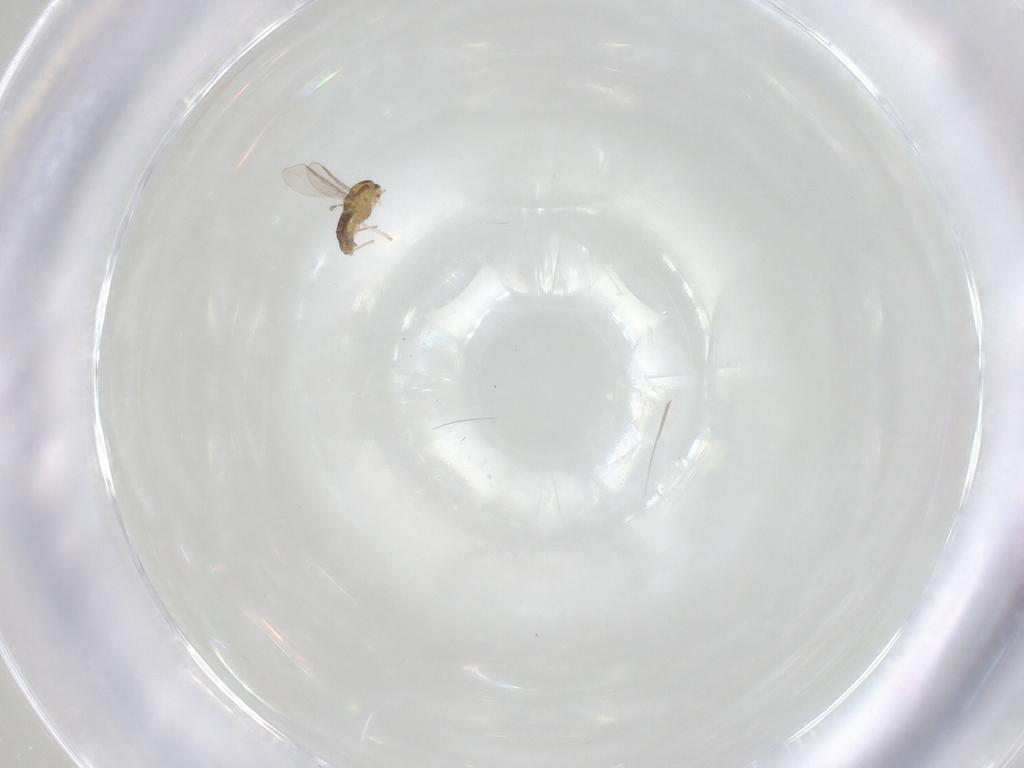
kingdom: Animalia
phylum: Arthropoda
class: Insecta
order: Diptera
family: Chironomidae
